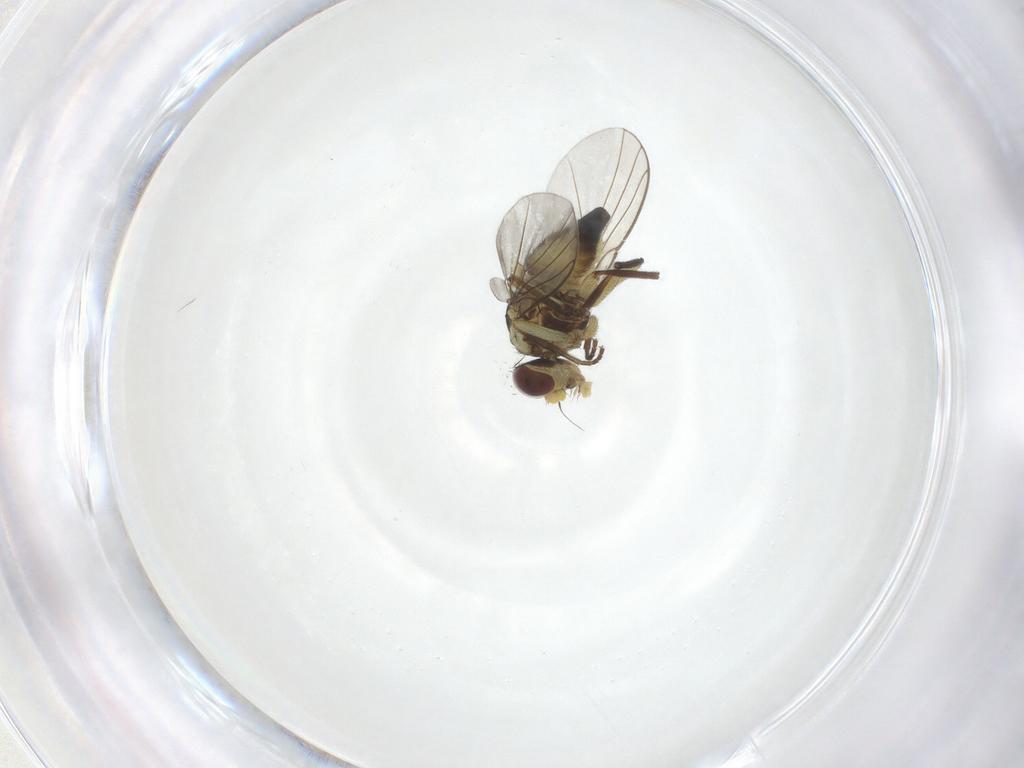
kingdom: Animalia
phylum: Arthropoda
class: Insecta
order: Diptera
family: Agromyzidae
